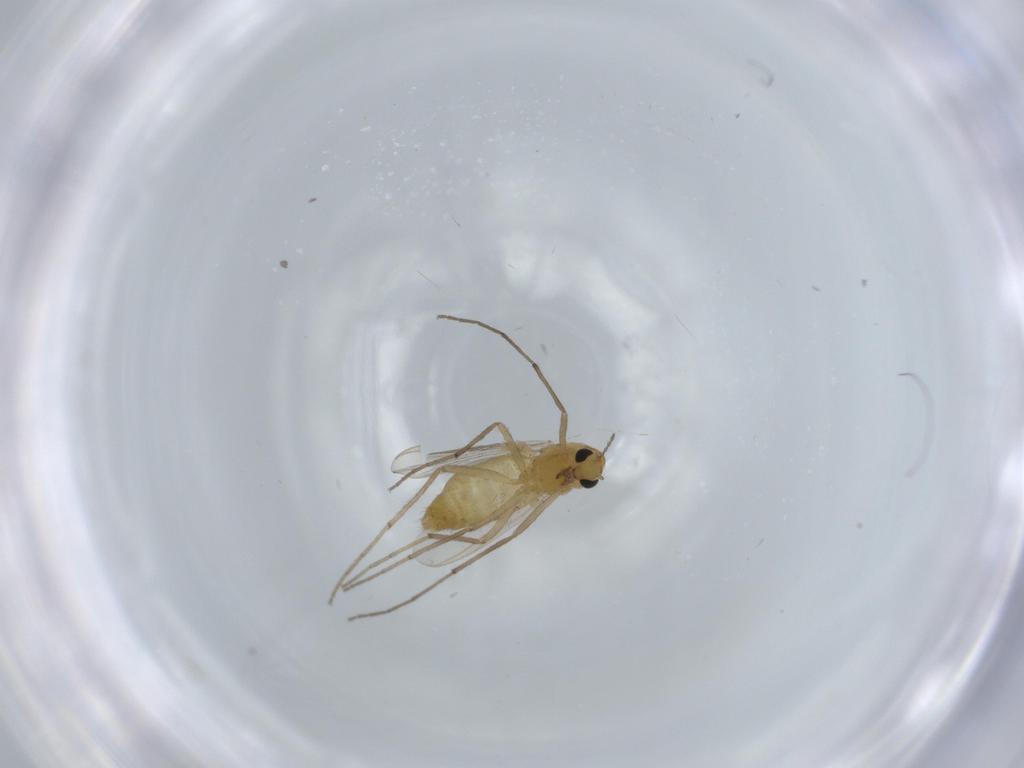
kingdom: Animalia
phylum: Arthropoda
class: Insecta
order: Diptera
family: Chironomidae
